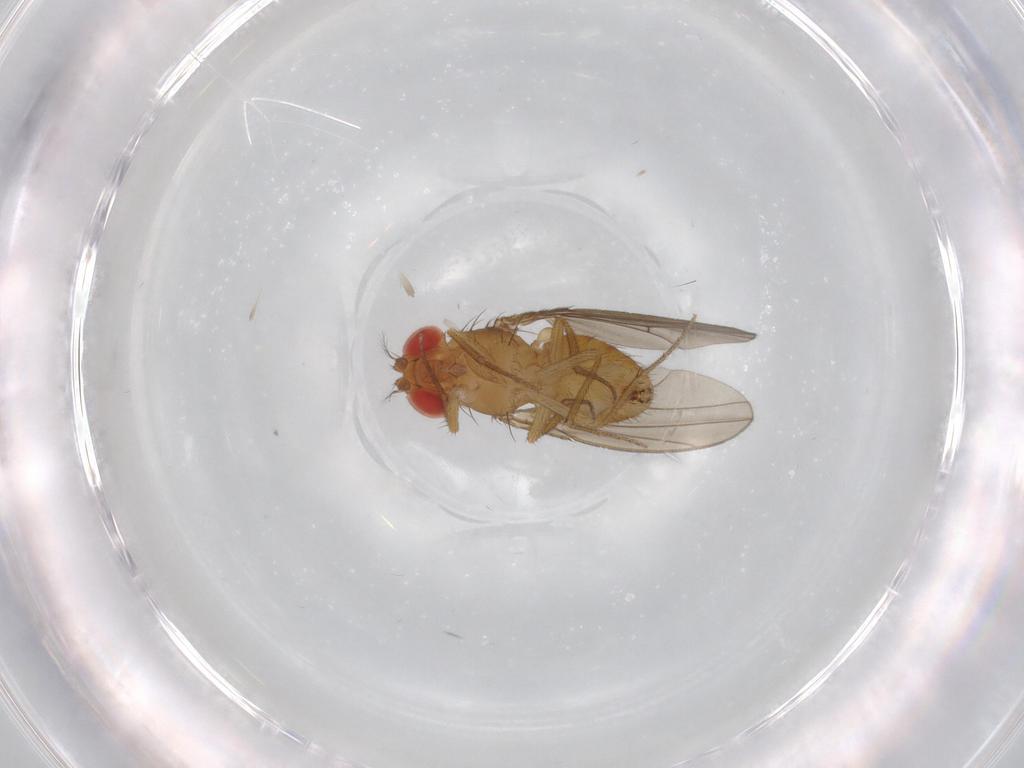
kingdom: Animalia
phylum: Arthropoda
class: Insecta
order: Diptera
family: Drosophilidae
